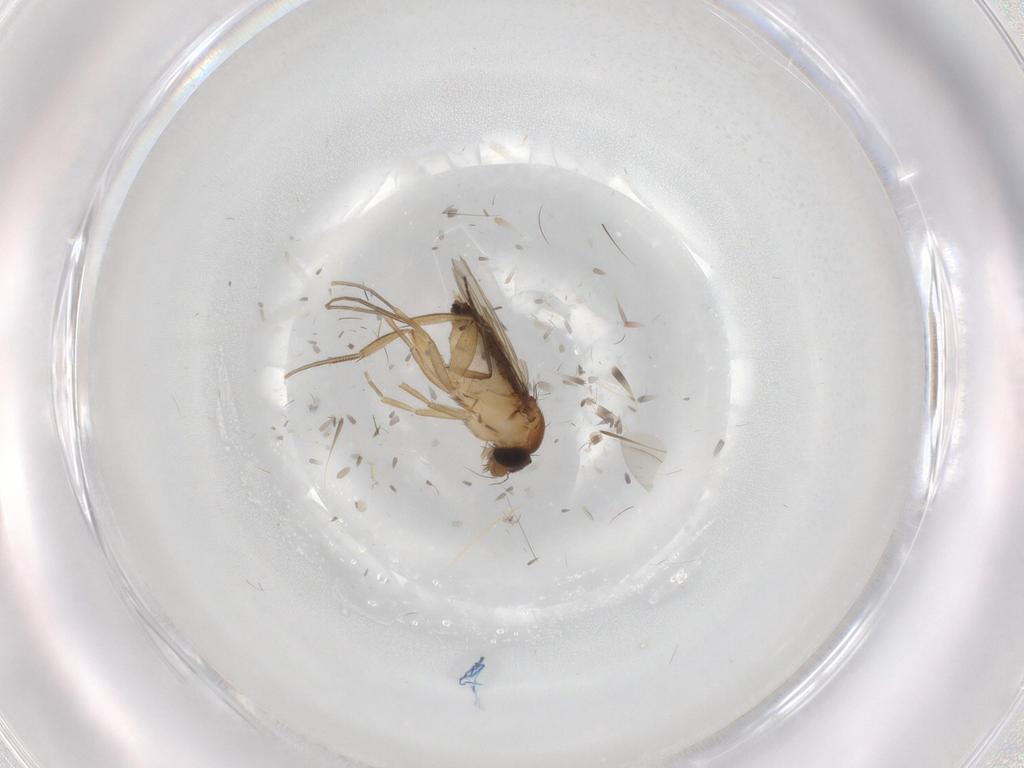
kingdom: Animalia
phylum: Arthropoda
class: Insecta
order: Diptera
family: Phoridae
